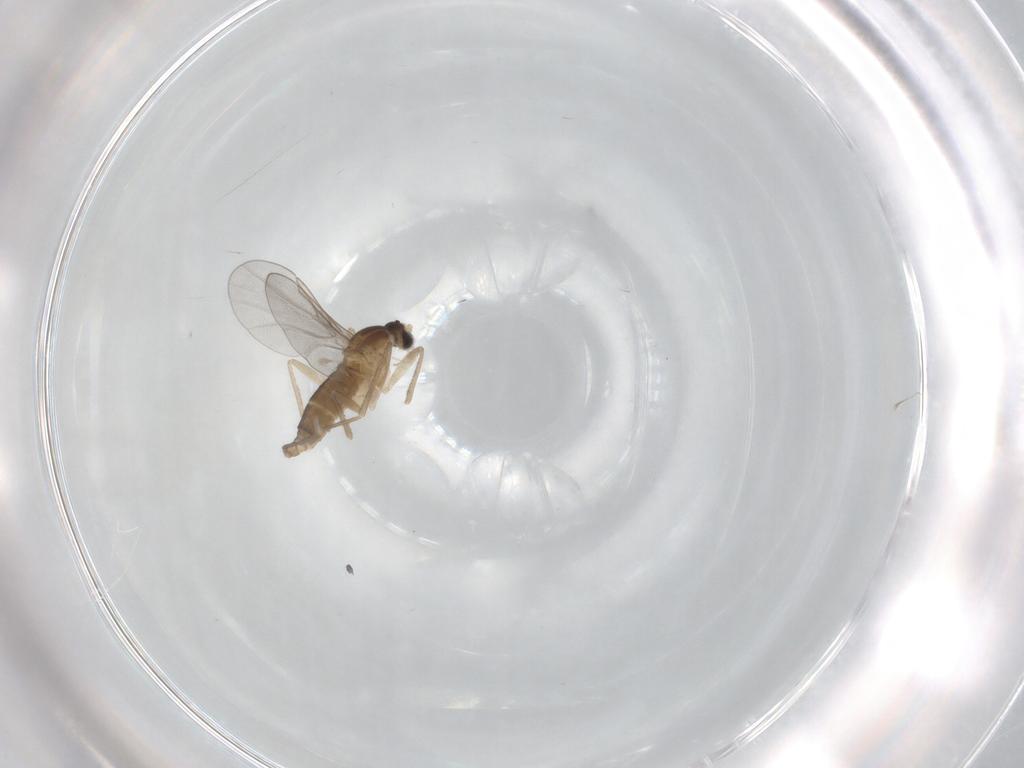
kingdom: Animalia
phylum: Arthropoda
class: Insecta
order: Diptera
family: Cecidomyiidae
